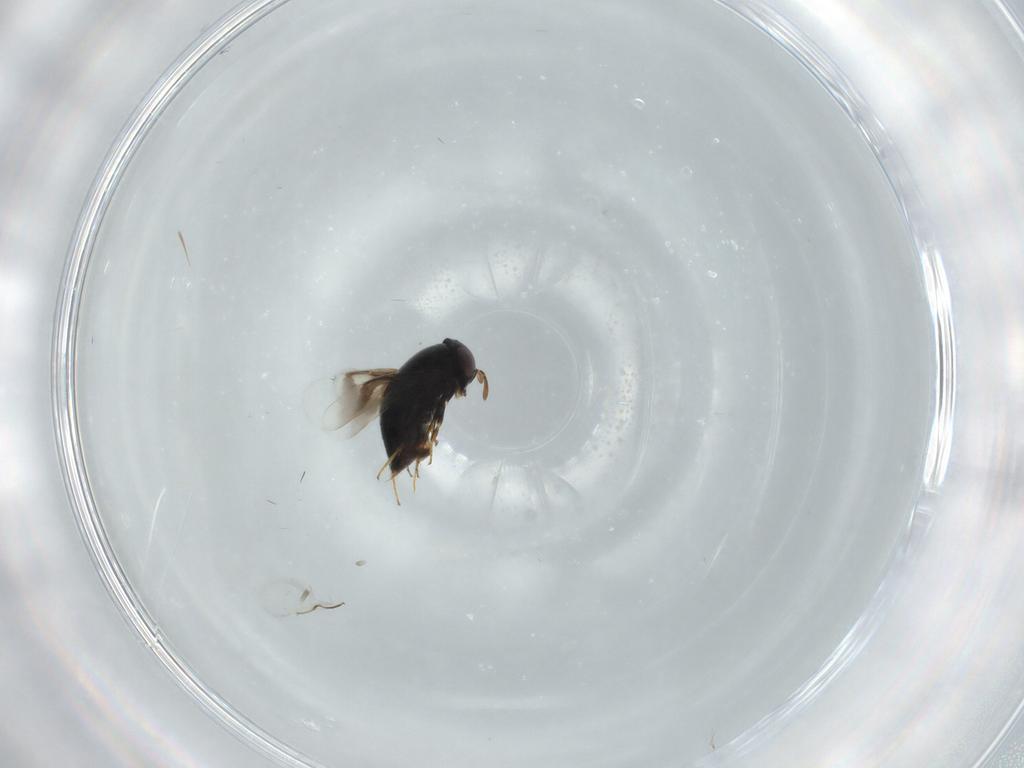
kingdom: Animalia
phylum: Arthropoda
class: Insecta
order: Hymenoptera
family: Signiphoridae
